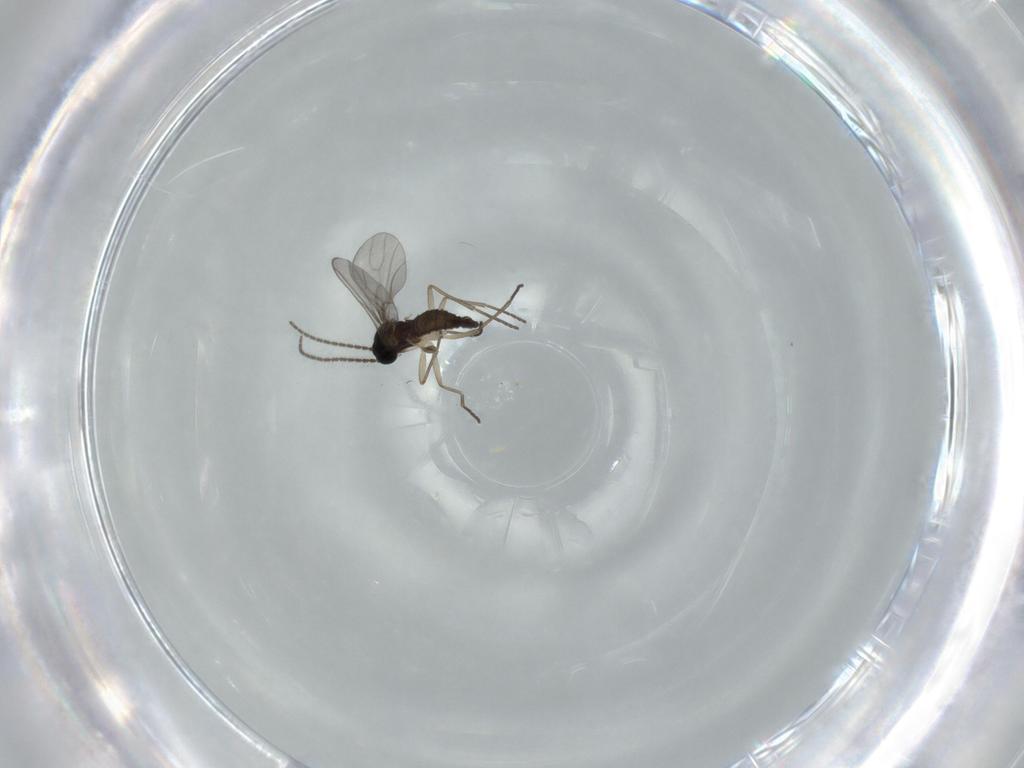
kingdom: Animalia
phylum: Arthropoda
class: Insecta
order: Diptera
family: Sciaridae
